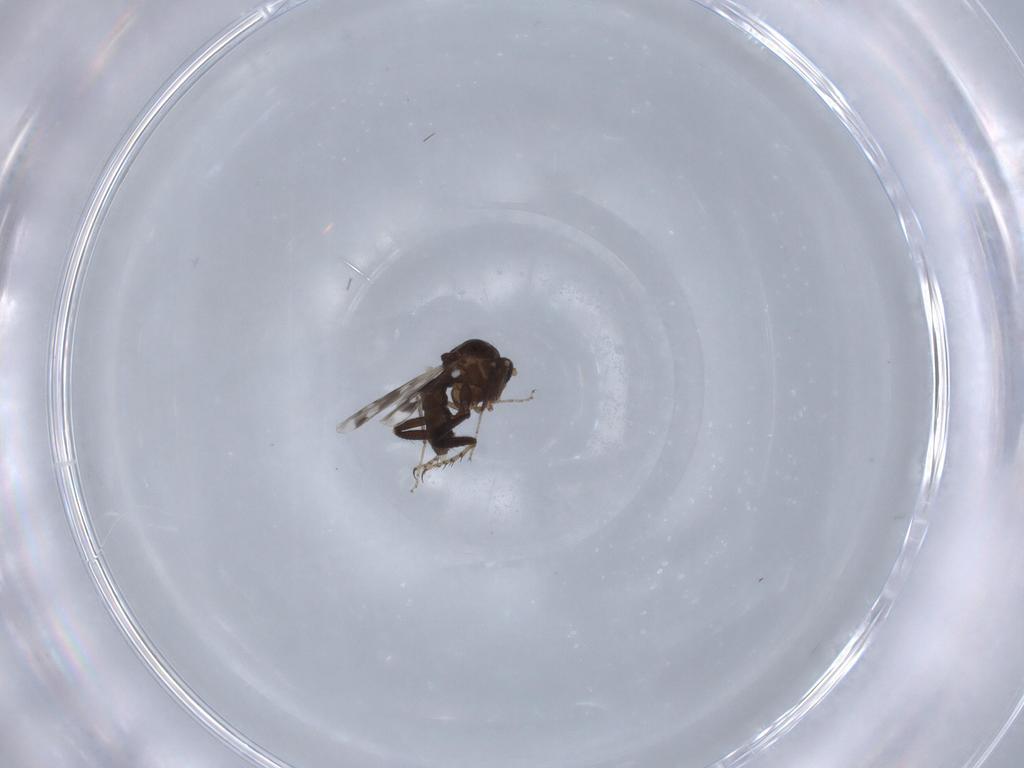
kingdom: Animalia
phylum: Arthropoda
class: Insecta
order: Diptera
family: Ceratopogonidae
